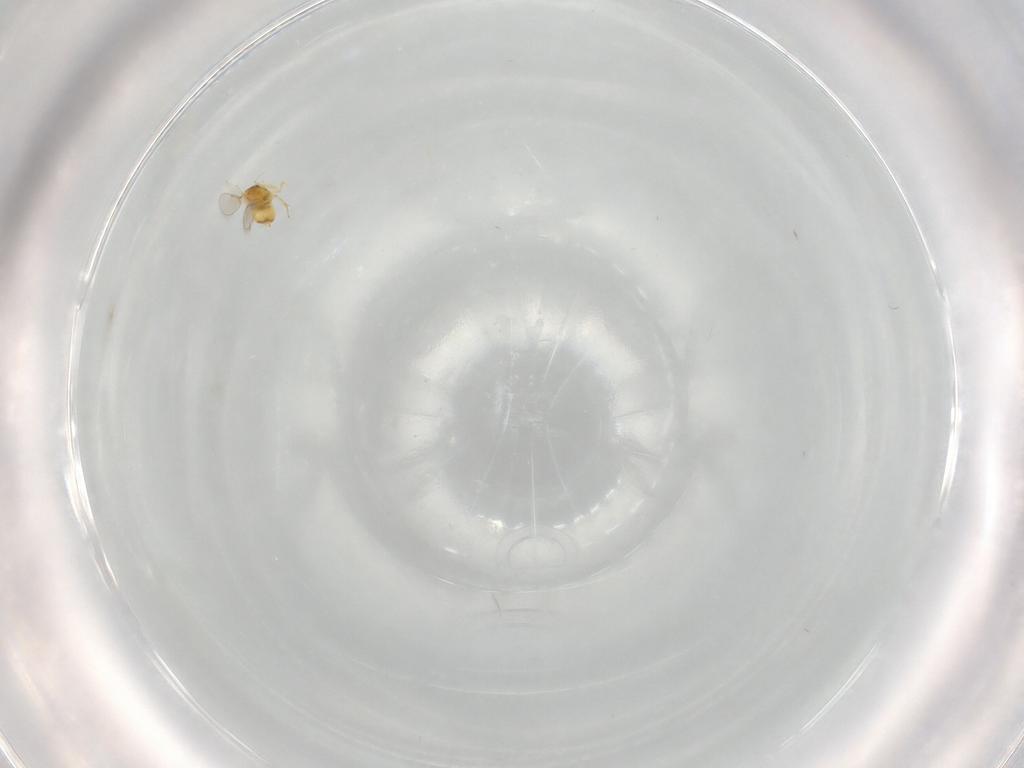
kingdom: Animalia
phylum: Arthropoda
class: Insecta
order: Hymenoptera
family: Aphelinidae
